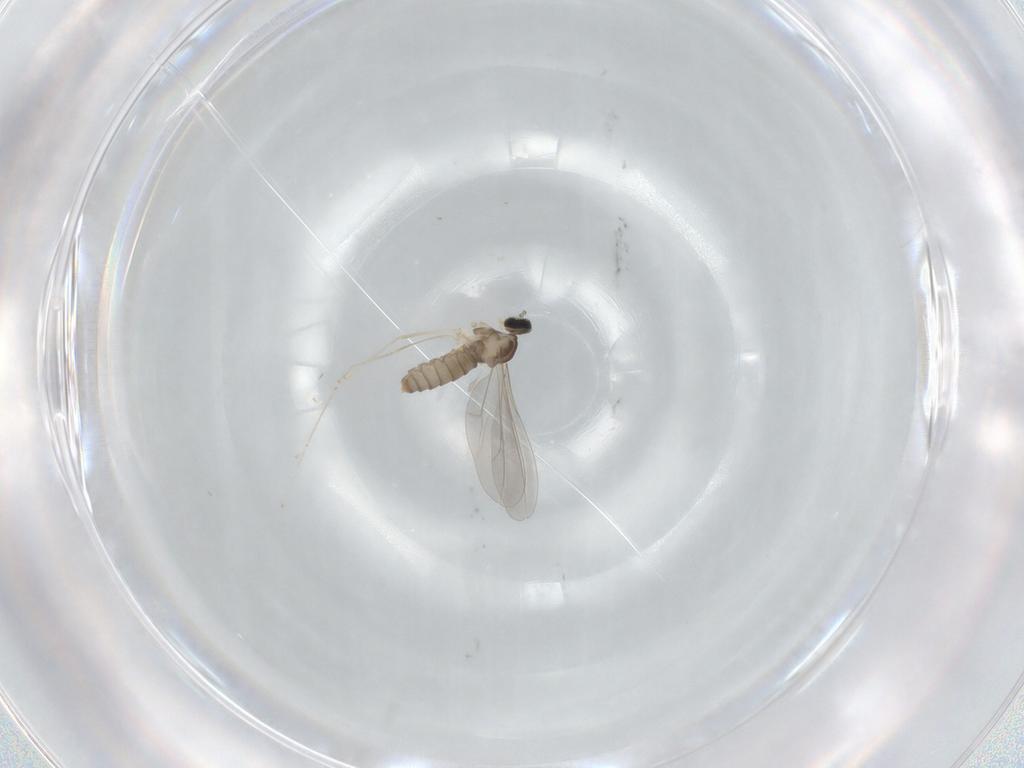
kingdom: Animalia
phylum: Arthropoda
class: Insecta
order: Diptera
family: Cecidomyiidae
